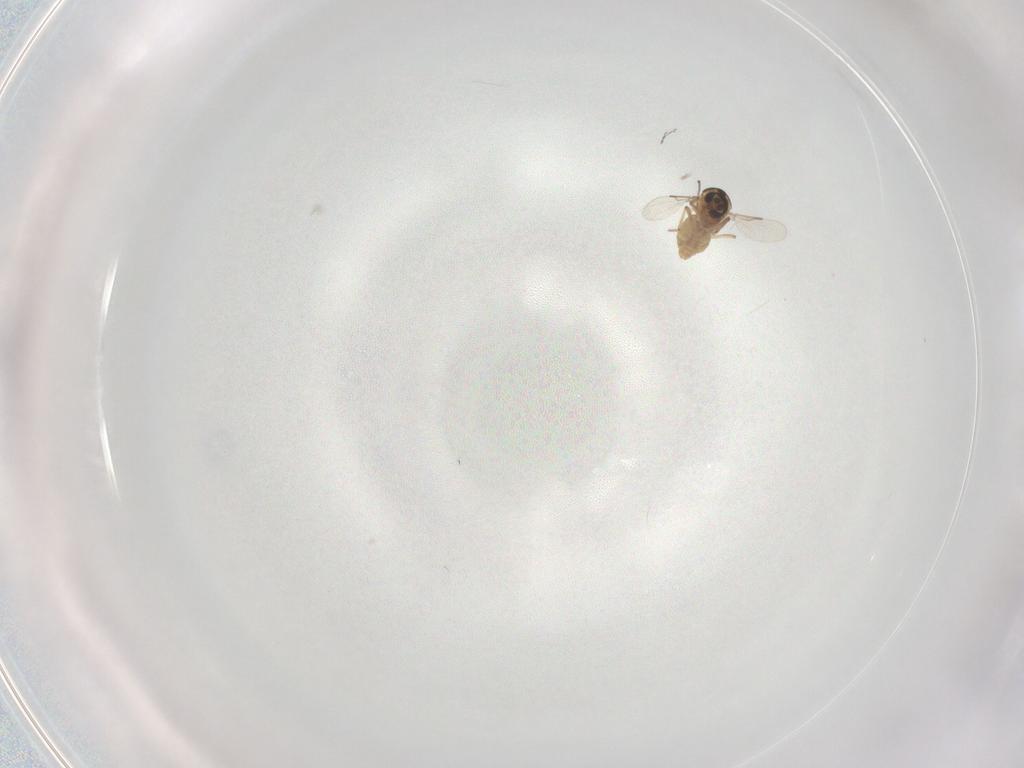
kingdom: Animalia
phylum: Arthropoda
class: Insecta
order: Diptera
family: Ceratopogonidae
